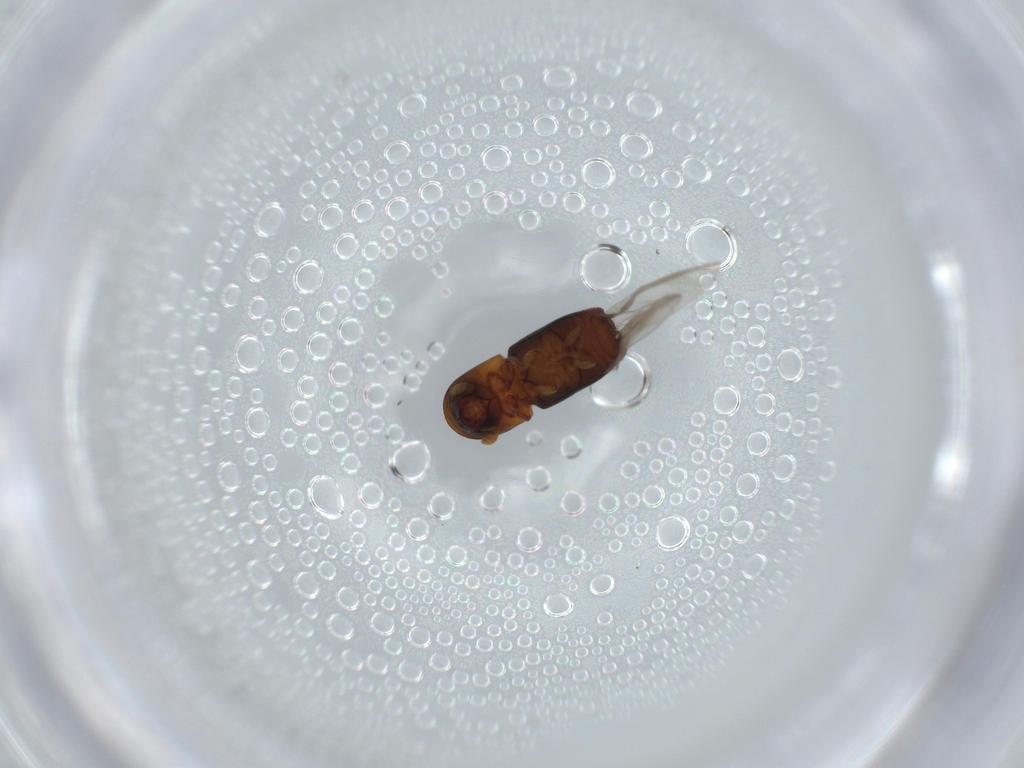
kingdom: Animalia
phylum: Arthropoda
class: Insecta
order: Coleoptera
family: Curculionidae
